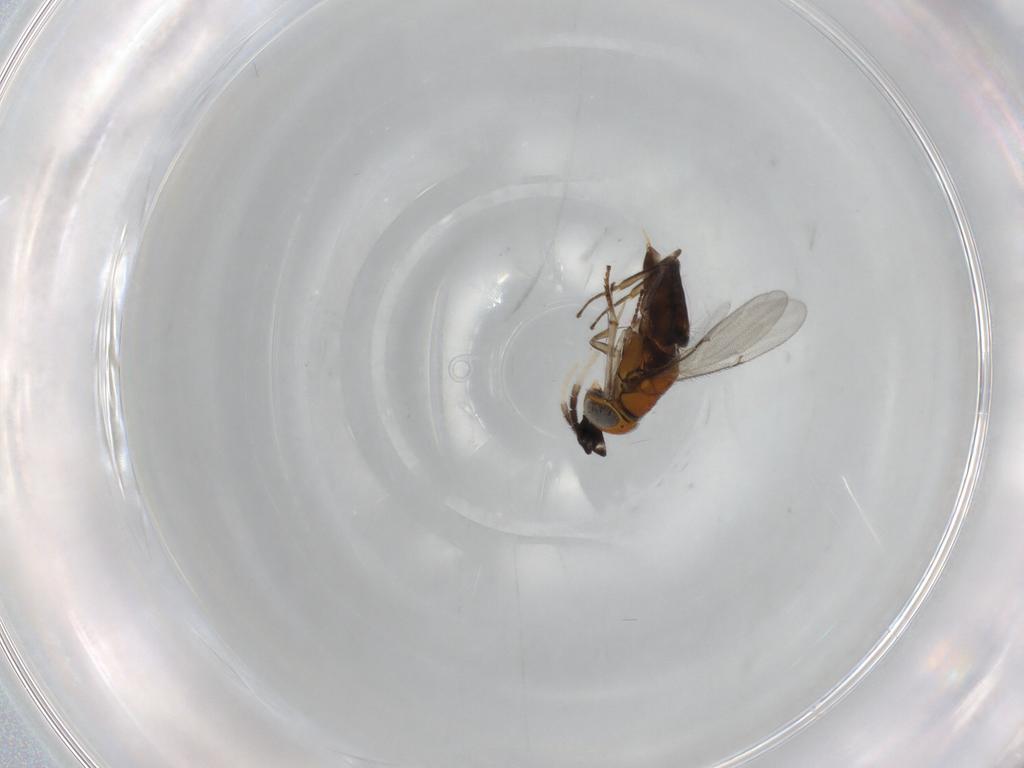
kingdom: Animalia
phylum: Arthropoda
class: Insecta
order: Hymenoptera
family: Encyrtidae
